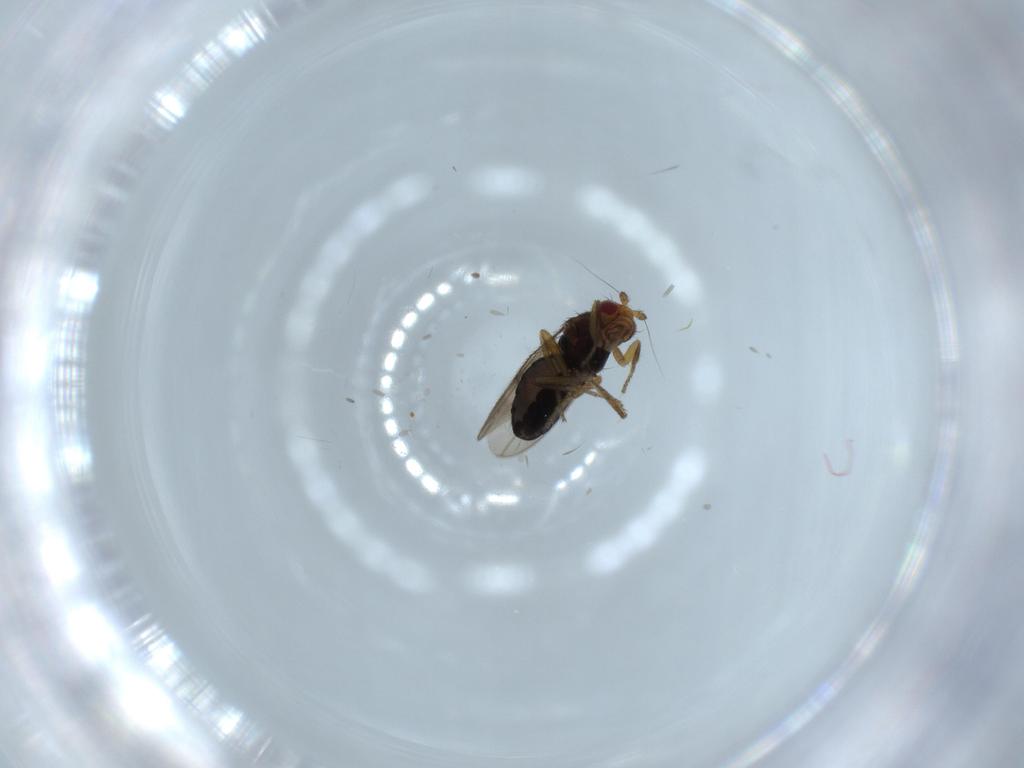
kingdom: Animalia
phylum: Arthropoda
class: Insecta
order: Diptera
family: Sphaeroceridae
